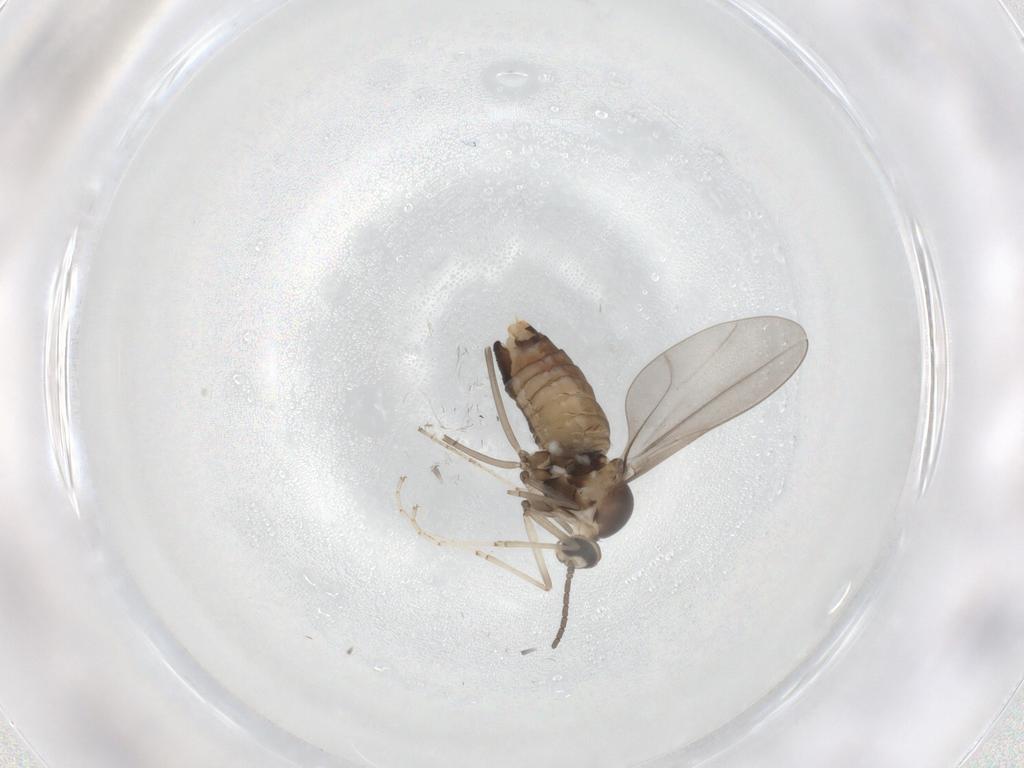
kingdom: Animalia
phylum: Arthropoda
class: Insecta
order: Diptera
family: Cecidomyiidae
